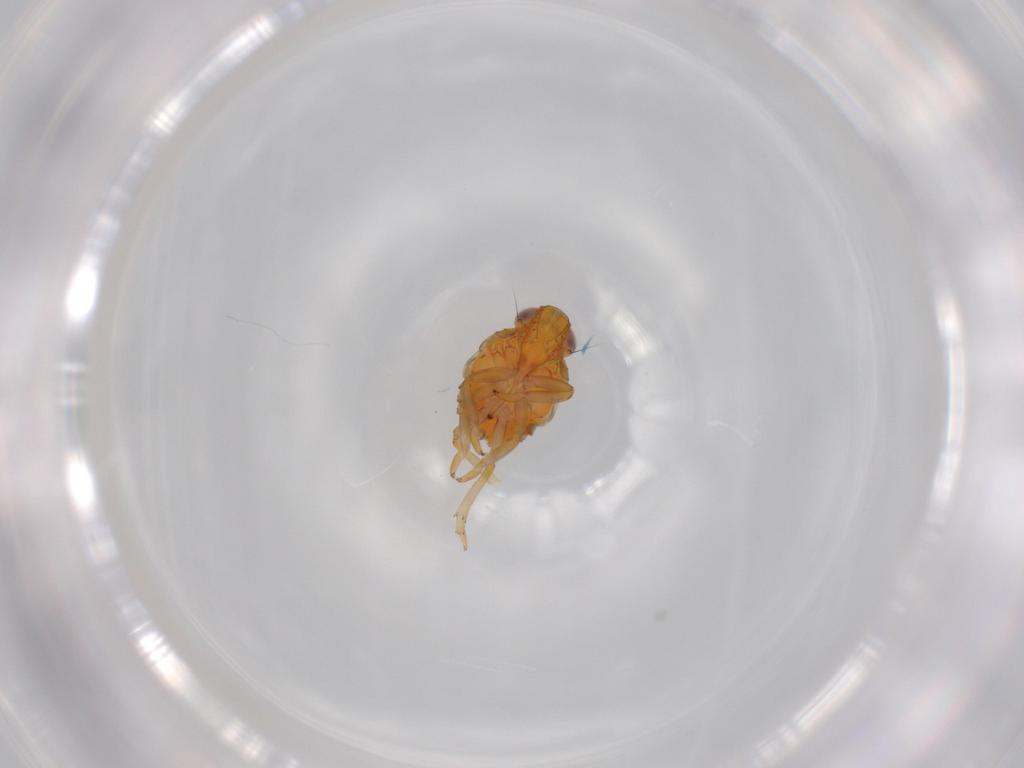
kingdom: Animalia
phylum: Arthropoda
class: Insecta
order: Hemiptera
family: Issidae
